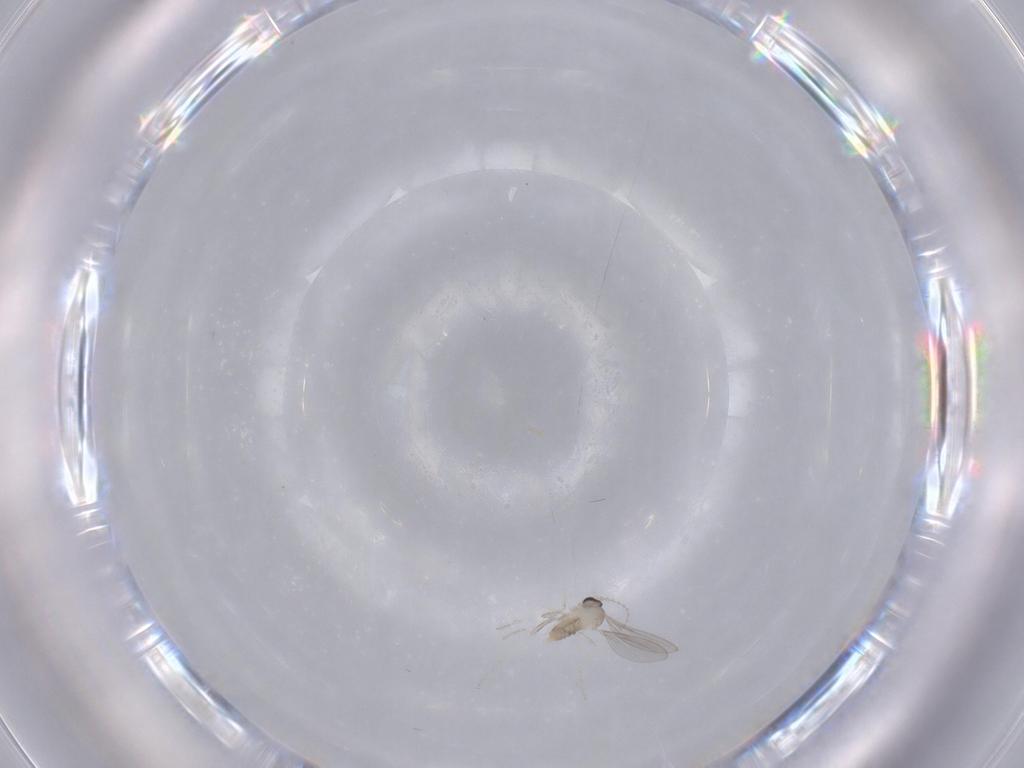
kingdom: Animalia
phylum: Arthropoda
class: Insecta
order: Diptera
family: Cecidomyiidae
